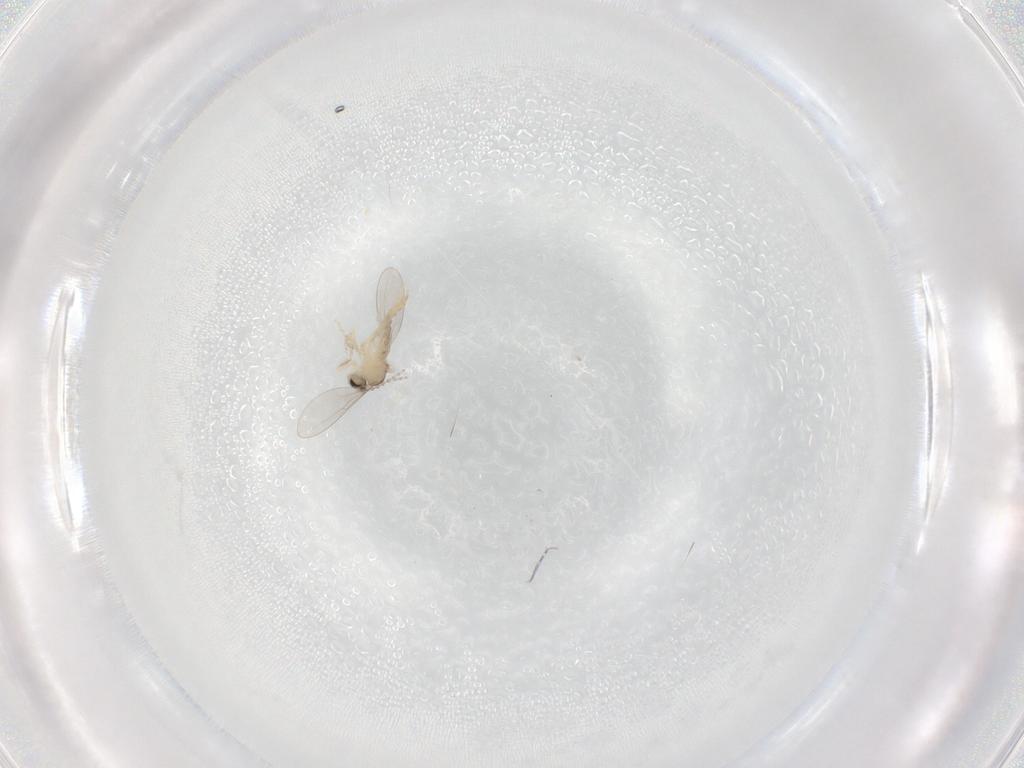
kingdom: Animalia
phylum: Arthropoda
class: Insecta
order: Diptera
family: Cecidomyiidae
